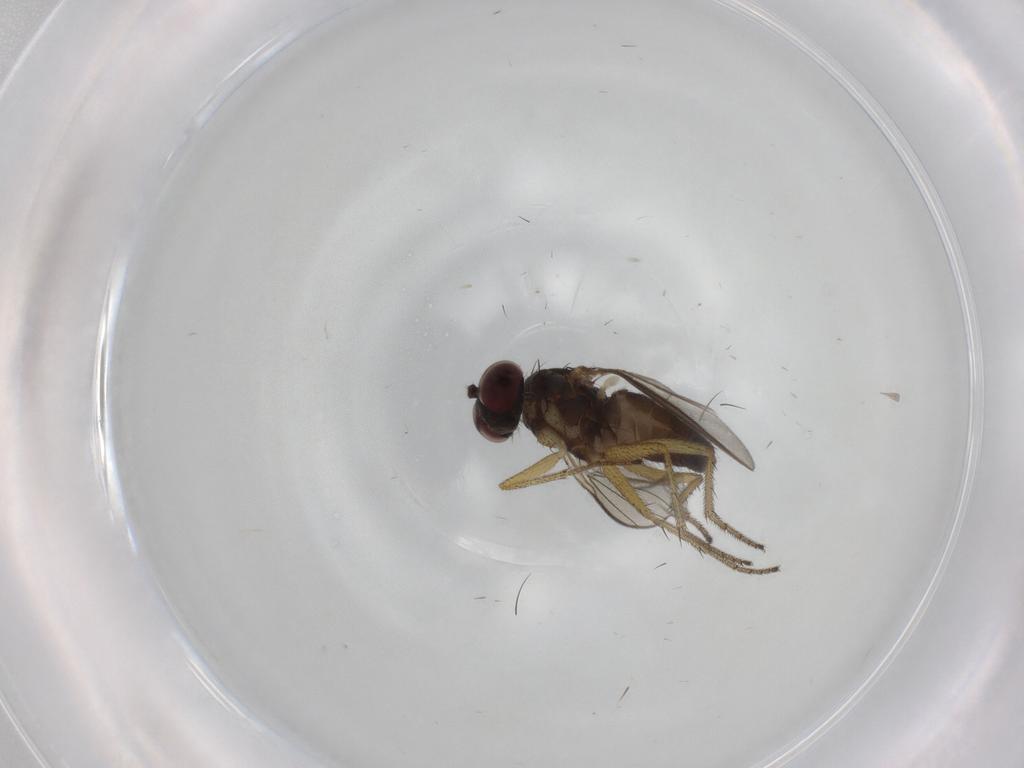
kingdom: Animalia
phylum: Arthropoda
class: Insecta
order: Diptera
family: Dolichopodidae
